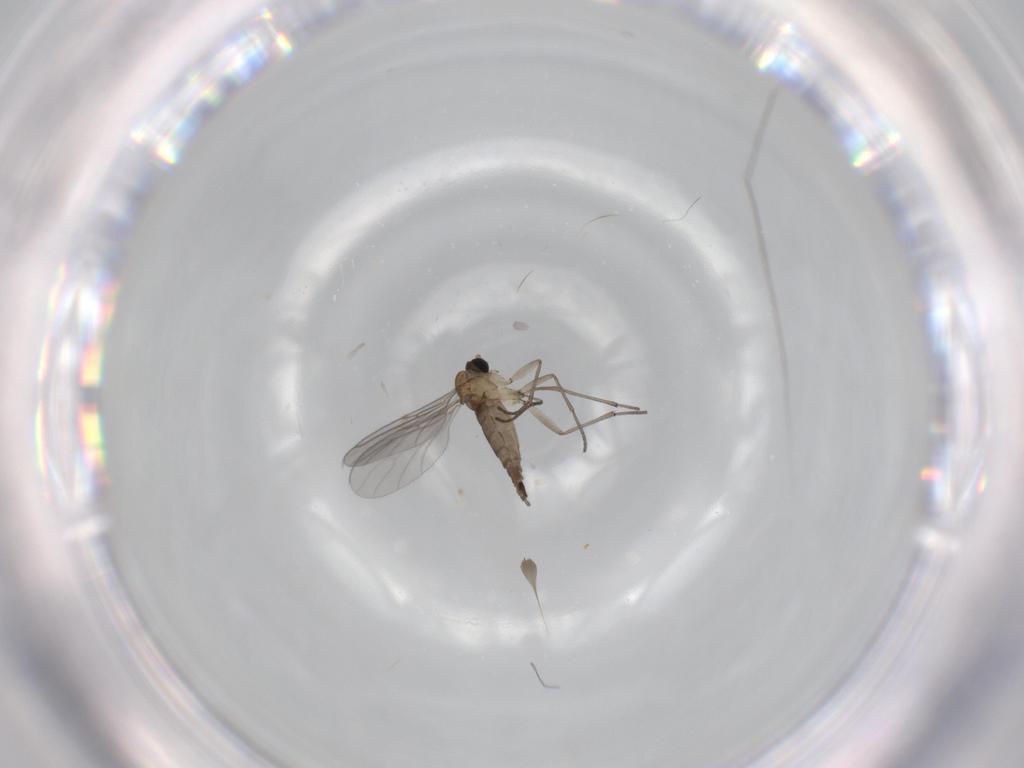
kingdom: Animalia
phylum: Arthropoda
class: Insecta
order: Diptera
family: Sciaridae
